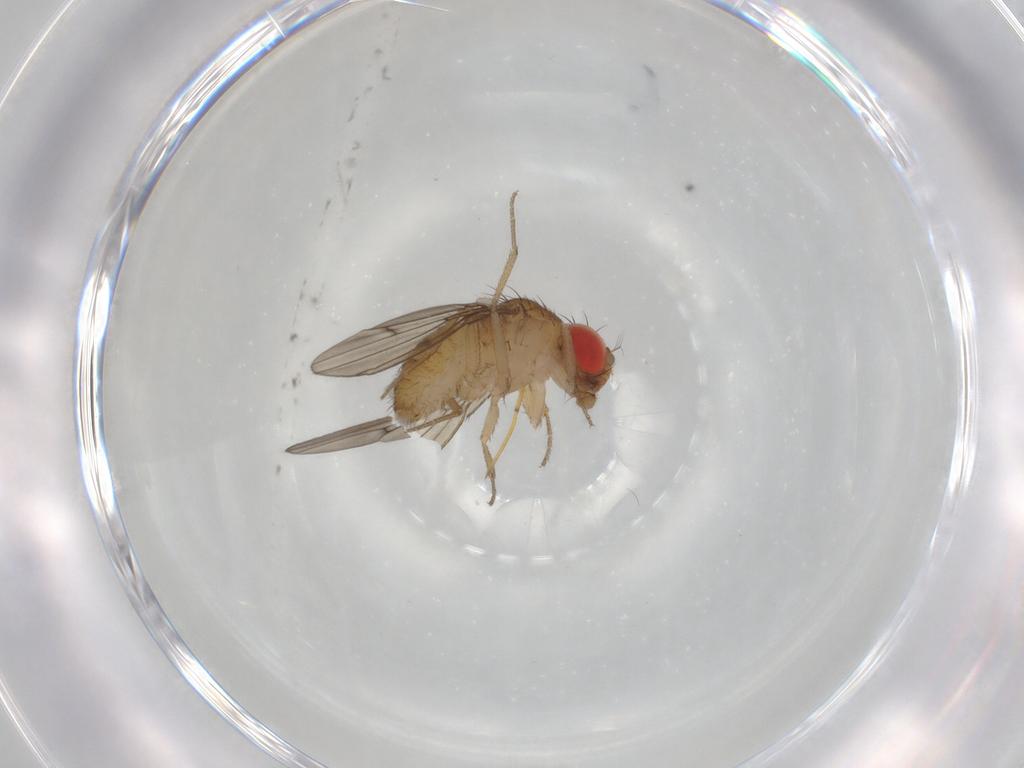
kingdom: Animalia
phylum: Arthropoda
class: Insecta
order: Diptera
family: Drosophilidae
